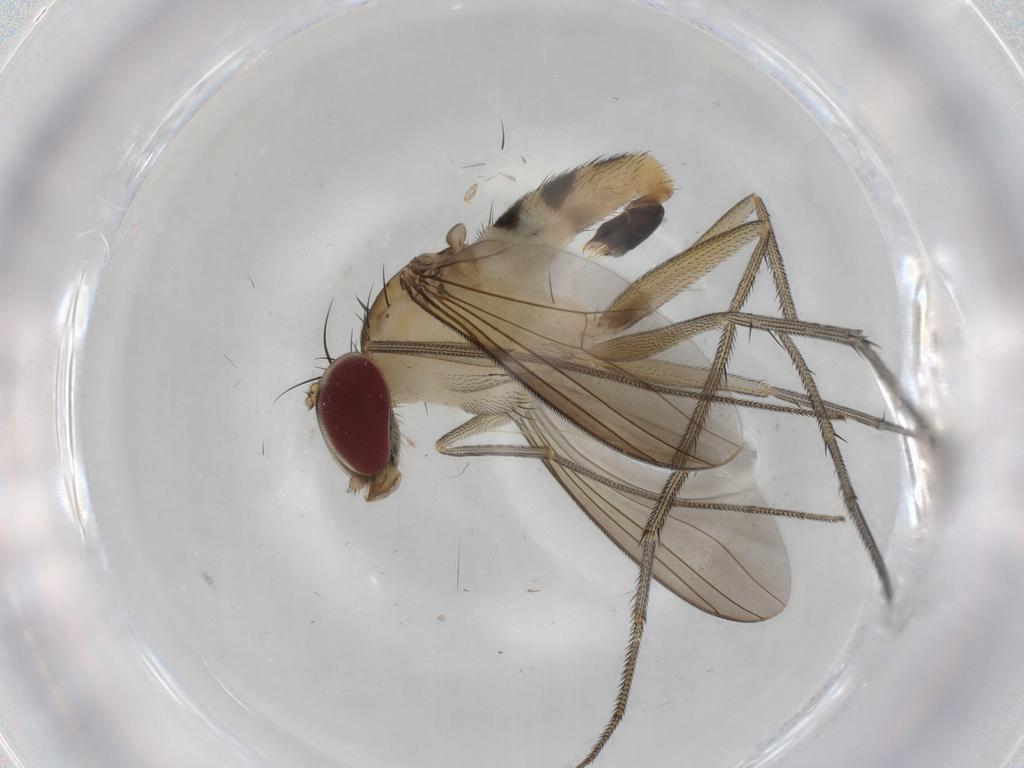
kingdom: Animalia
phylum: Arthropoda
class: Insecta
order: Diptera
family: Dolichopodidae
